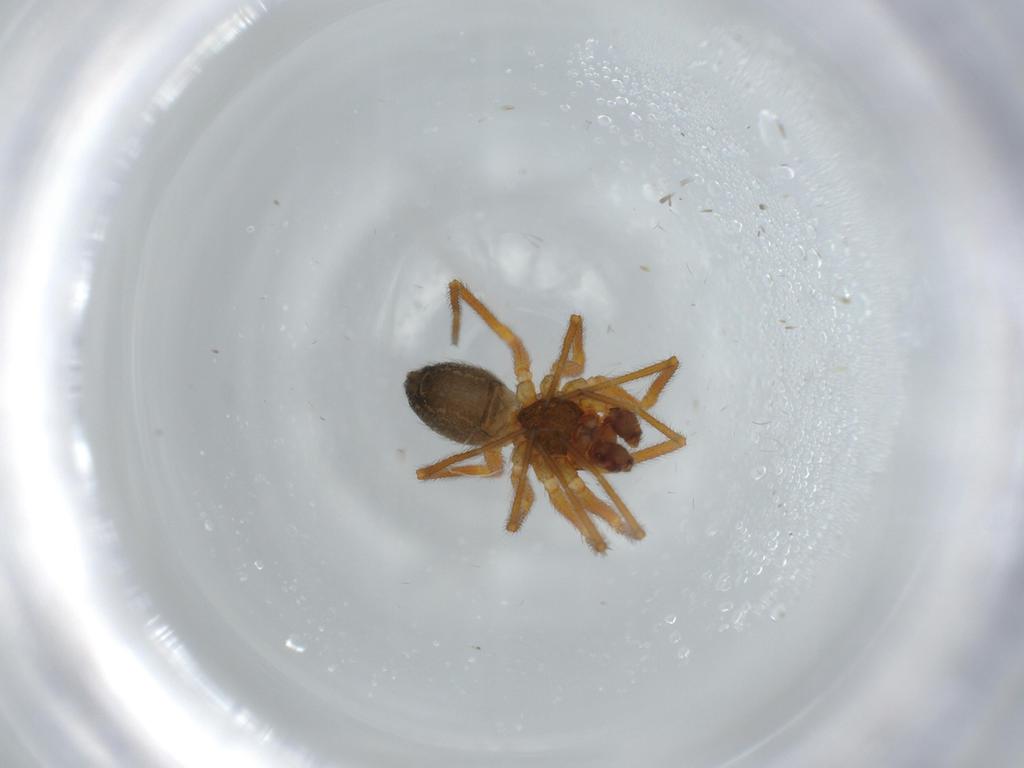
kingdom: Animalia
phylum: Arthropoda
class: Arachnida
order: Araneae
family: Linyphiidae
